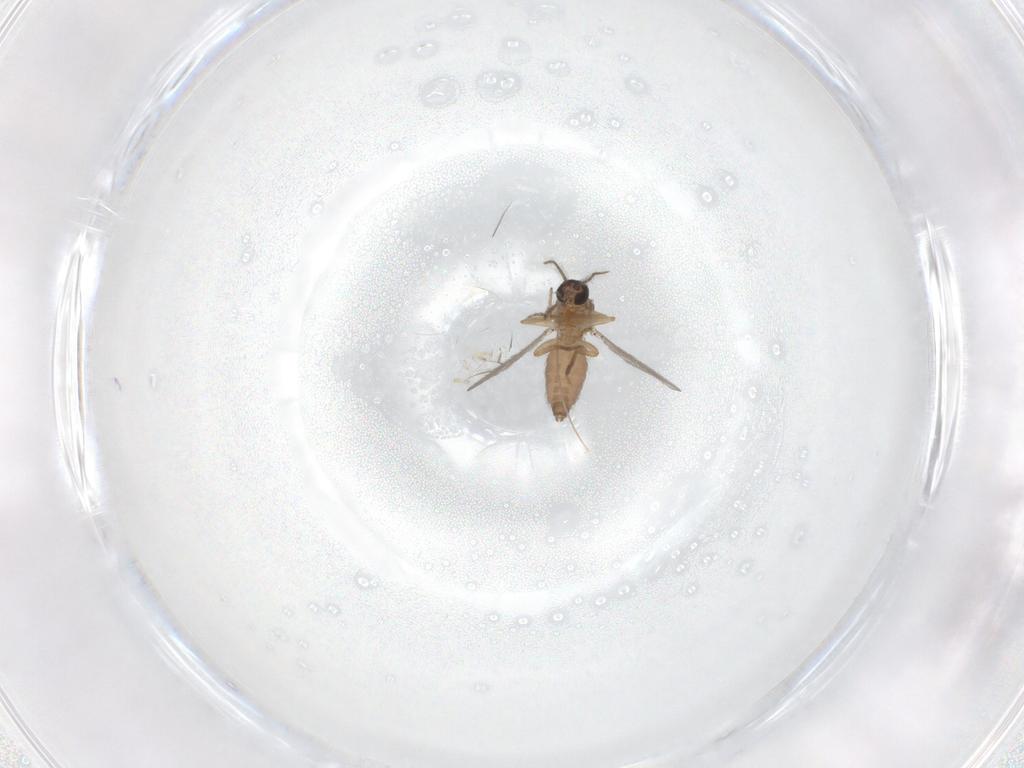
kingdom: Animalia
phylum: Arthropoda
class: Insecta
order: Diptera
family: Chironomidae
